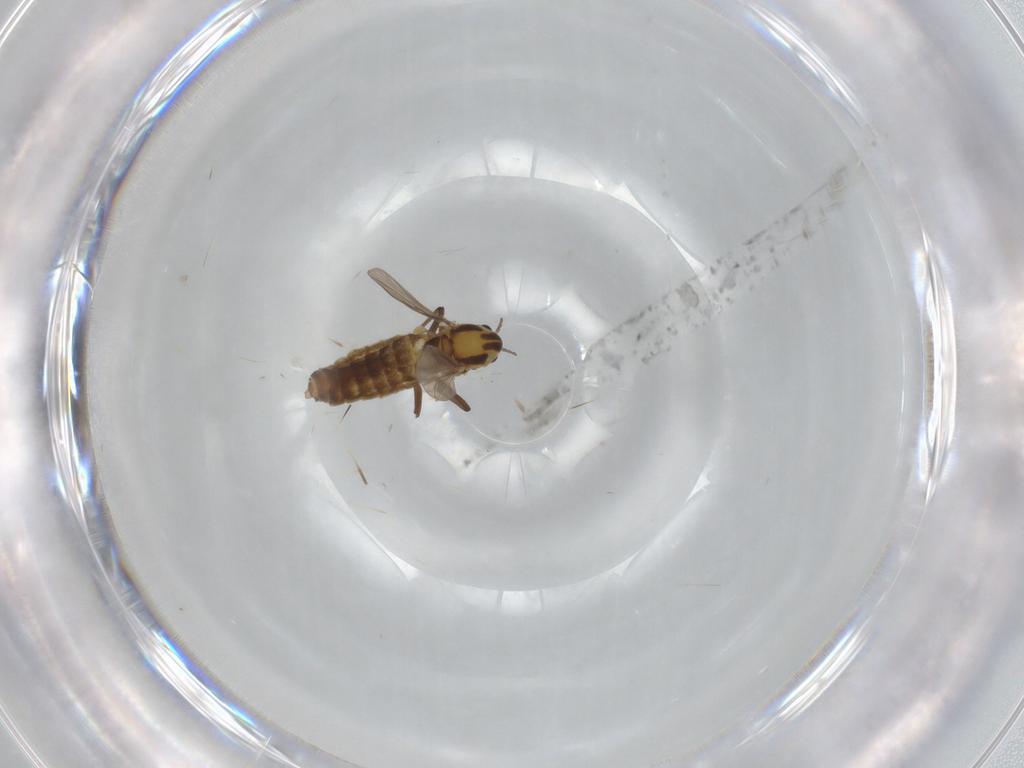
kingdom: Animalia
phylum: Arthropoda
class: Insecta
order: Diptera
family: Chironomidae
